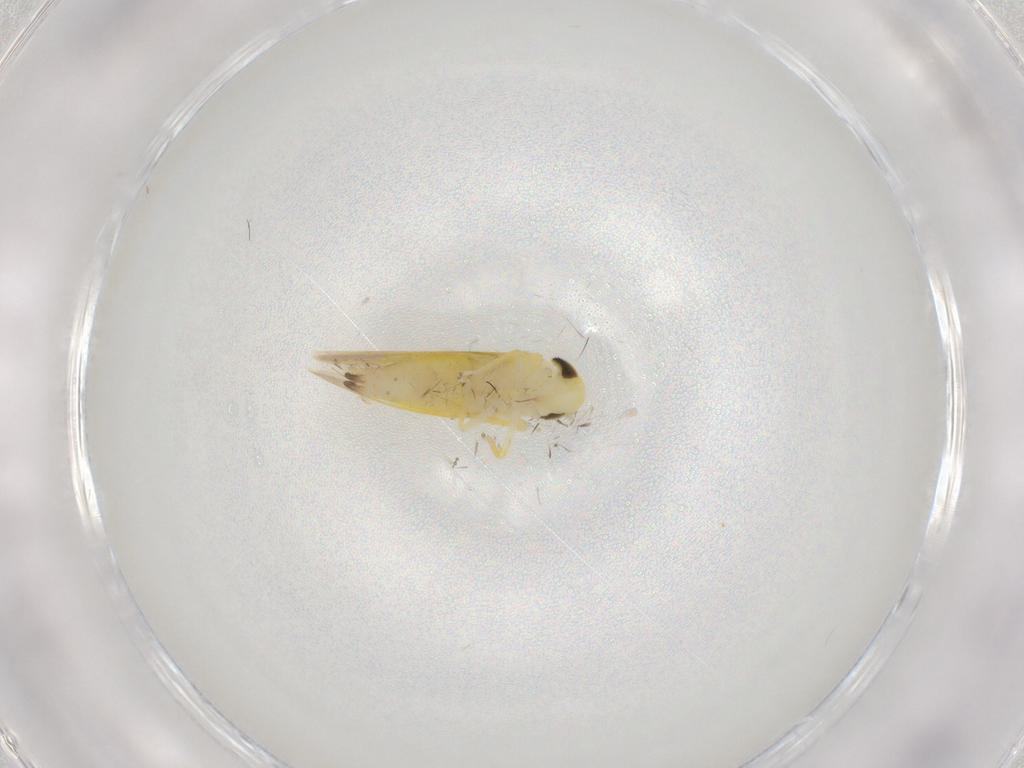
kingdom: Animalia
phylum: Arthropoda
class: Insecta
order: Hemiptera
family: Cicadellidae
